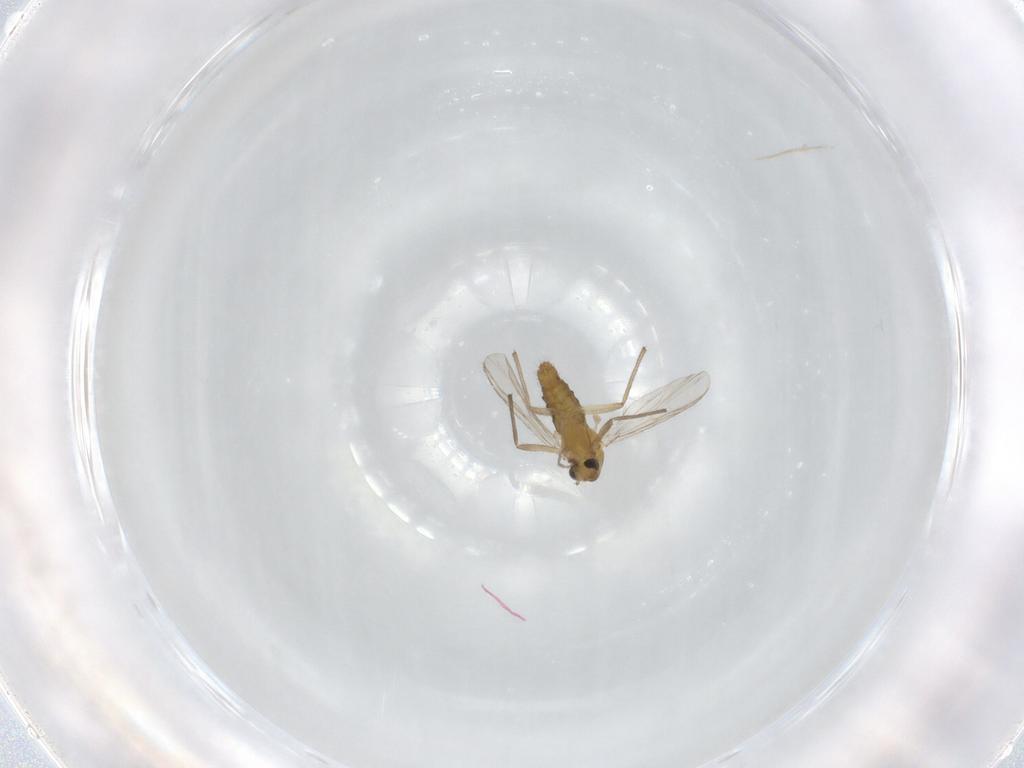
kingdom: Animalia
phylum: Arthropoda
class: Insecta
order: Diptera
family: Chironomidae
